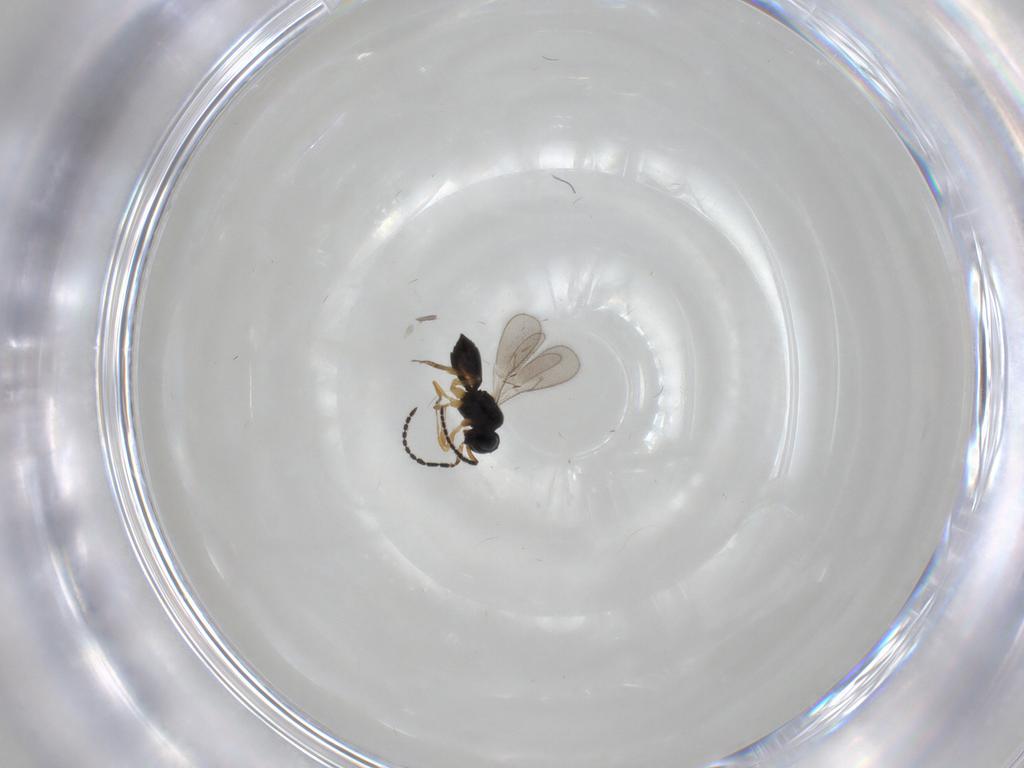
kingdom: Animalia
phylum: Arthropoda
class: Insecta
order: Hymenoptera
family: Scelionidae
